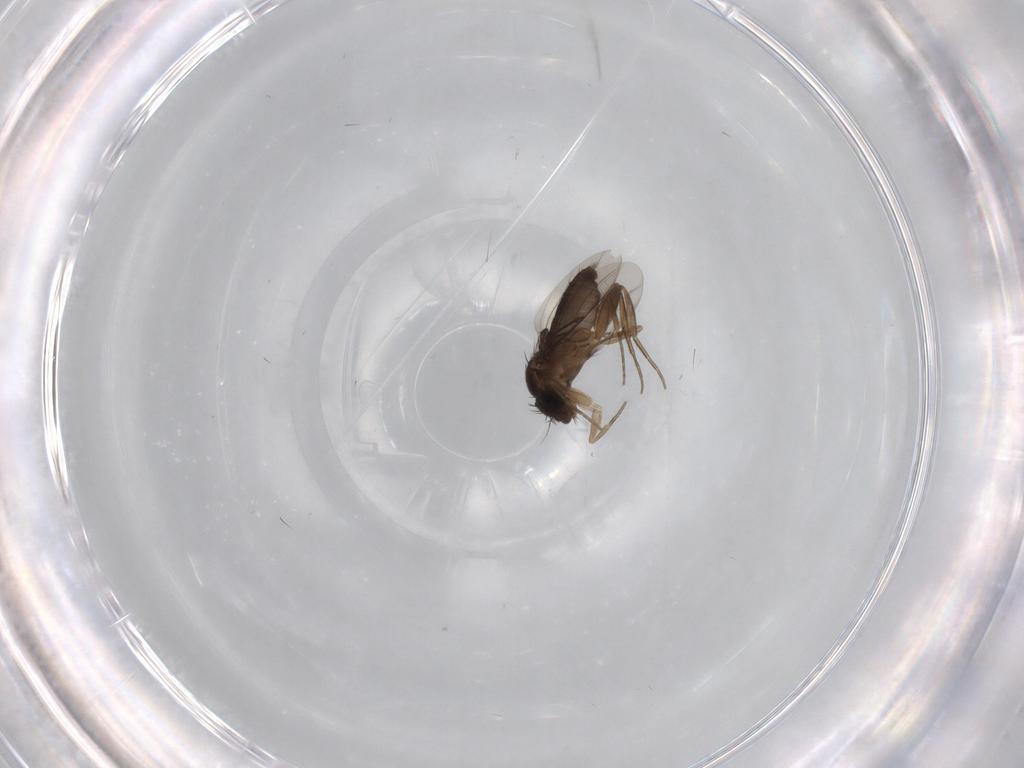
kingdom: Animalia
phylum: Arthropoda
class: Insecta
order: Diptera
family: Phoridae
